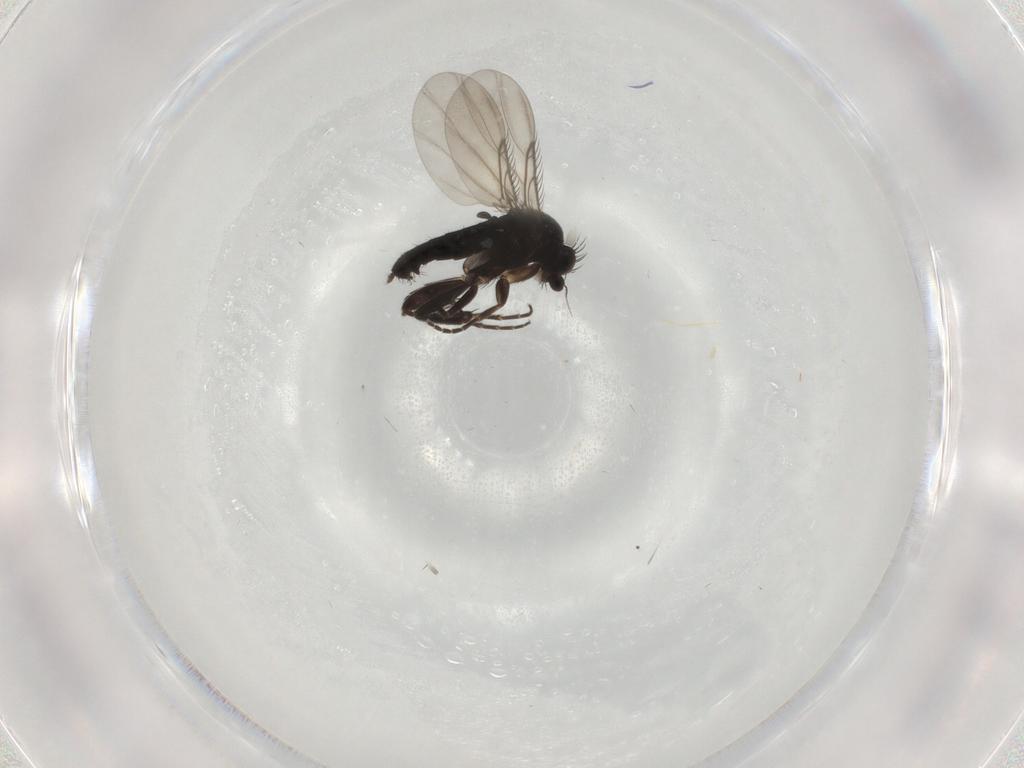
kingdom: Animalia
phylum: Arthropoda
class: Insecta
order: Diptera
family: Phoridae
